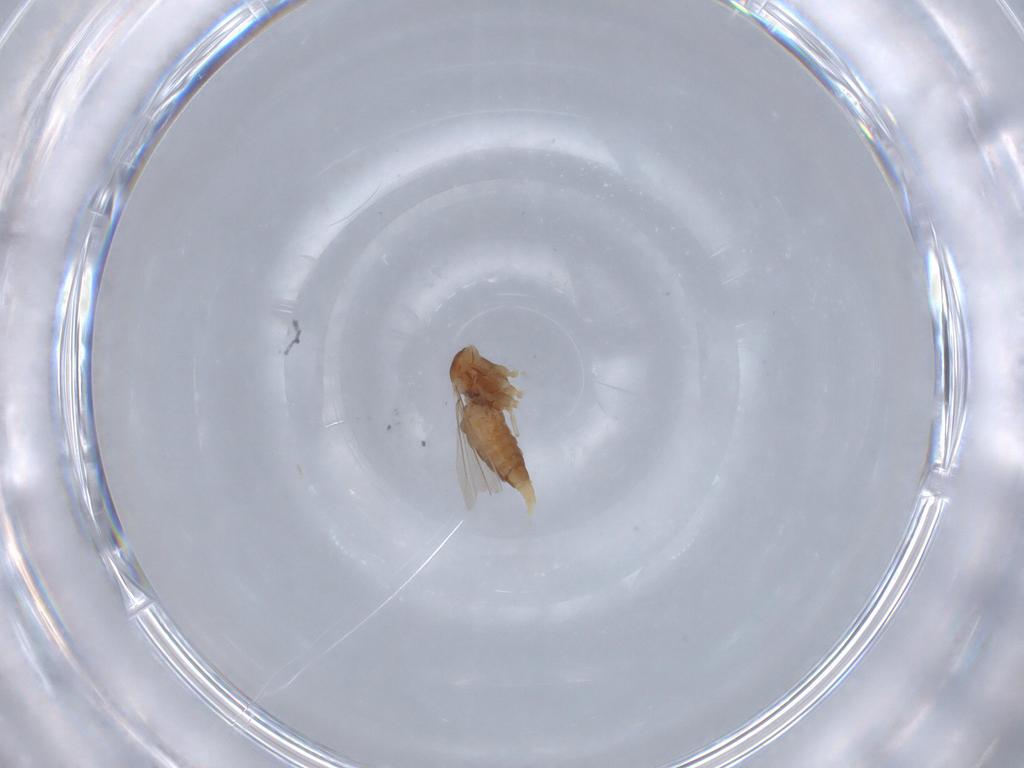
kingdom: Animalia
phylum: Arthropoda
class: Insecta
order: Diptera
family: Cecidomyiidae
